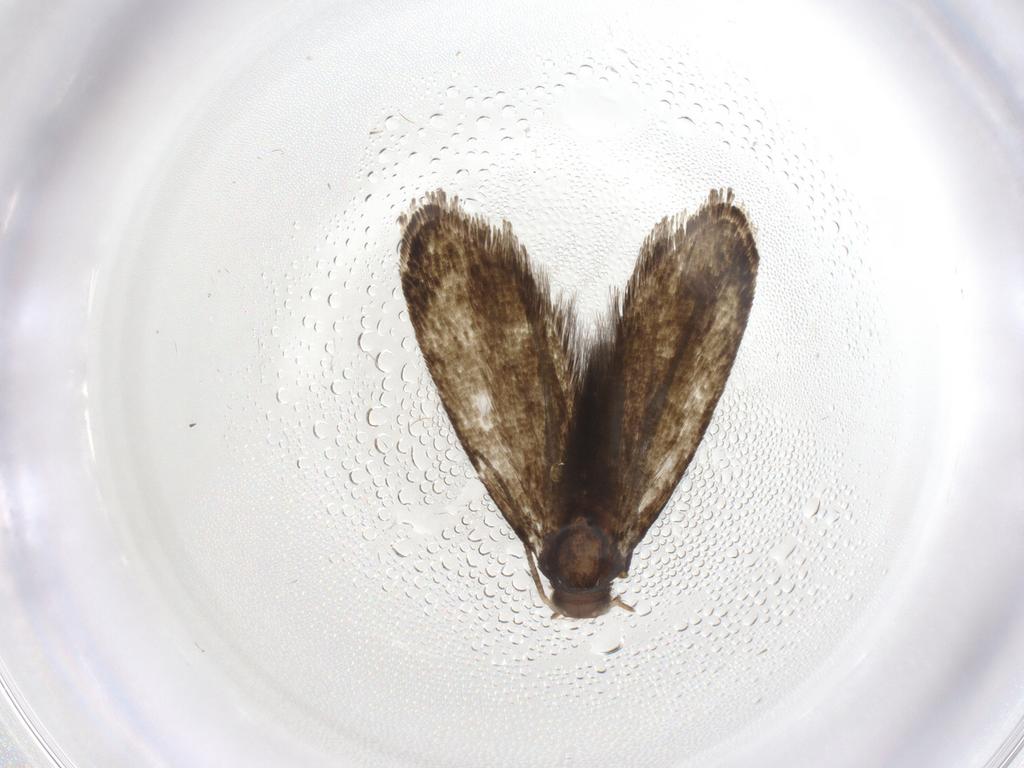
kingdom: Animalia
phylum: Arthropoda
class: Insecta
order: Lepidoptera
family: Tineidae
